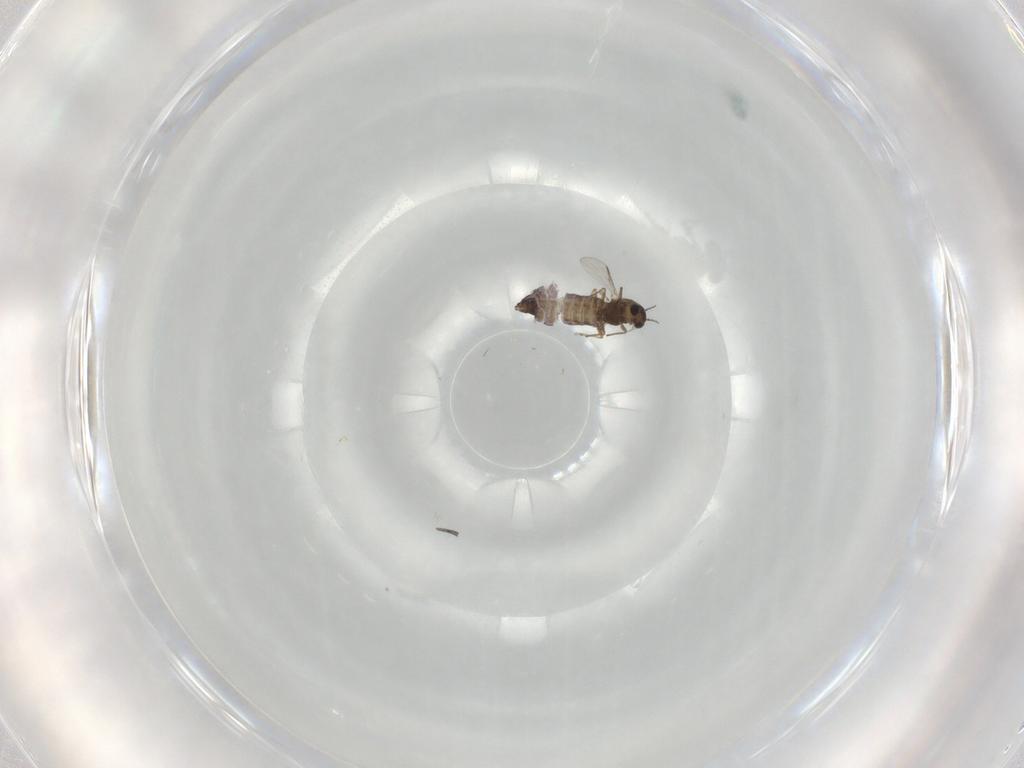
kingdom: Animalia
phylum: Arthropoda
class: Insecta
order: Diptera
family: Chironomidae
